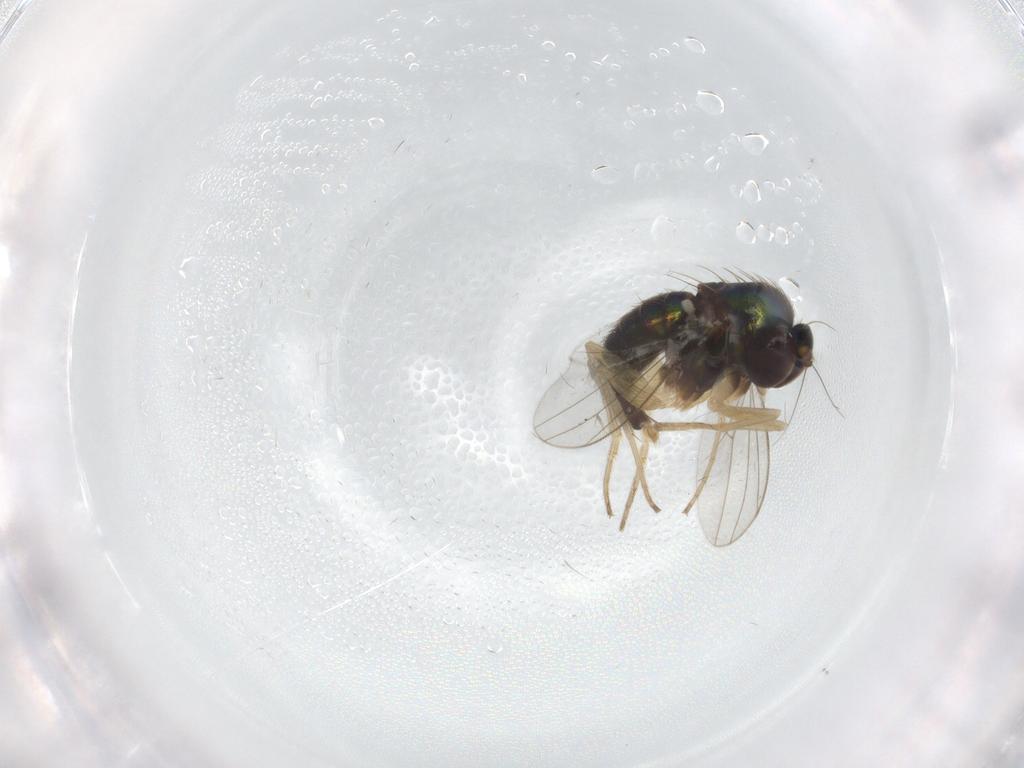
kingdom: Animalia
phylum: Arthropoda
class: Insecta
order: Diptera
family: Dolichopodidae
